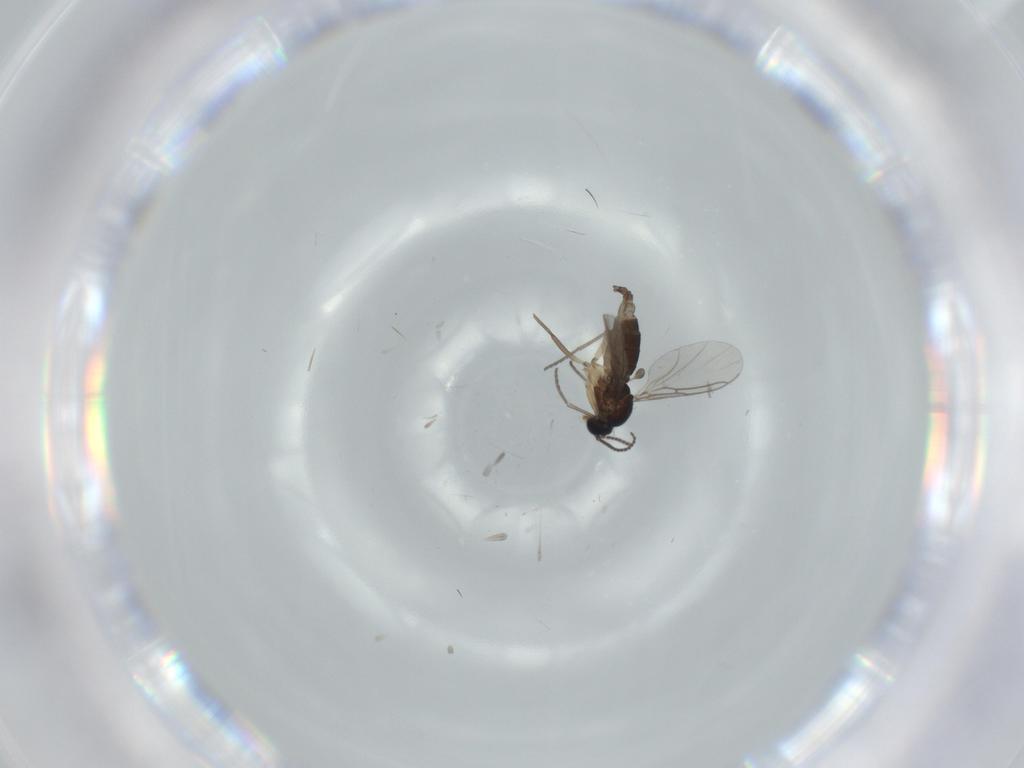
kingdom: Animalia
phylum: Arthropoda
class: Insecta
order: Diptera
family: Sciaridae
